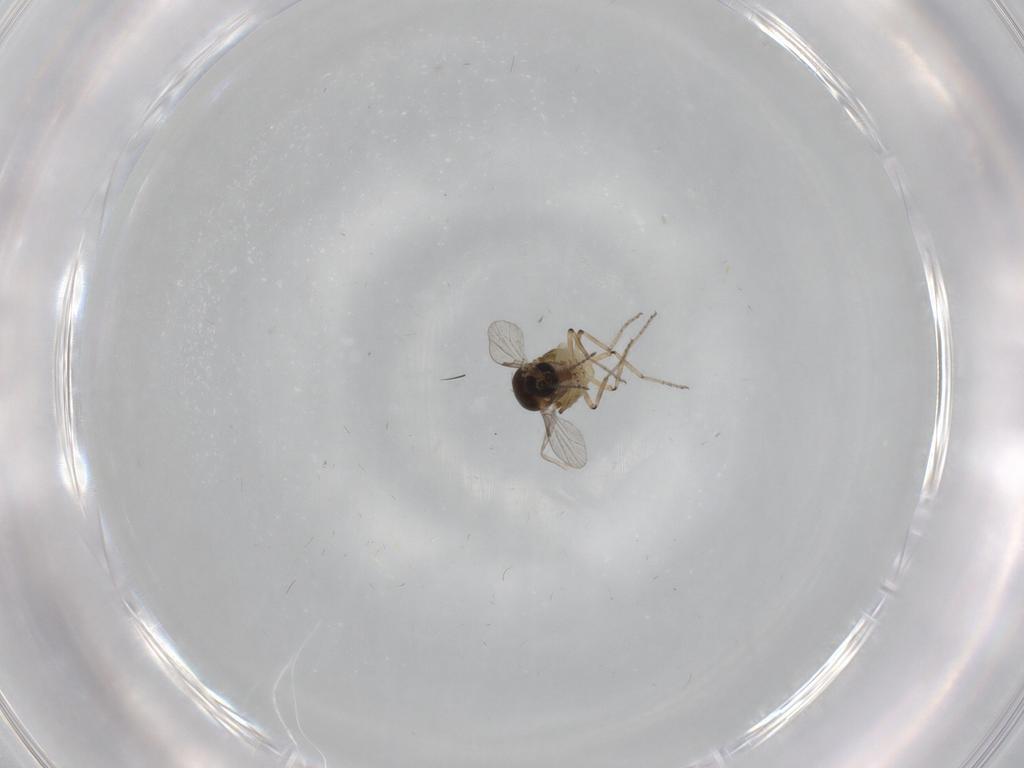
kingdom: Animalia
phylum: Arthropoda
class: Insecta
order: Diptera
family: Ceratopogonidae
